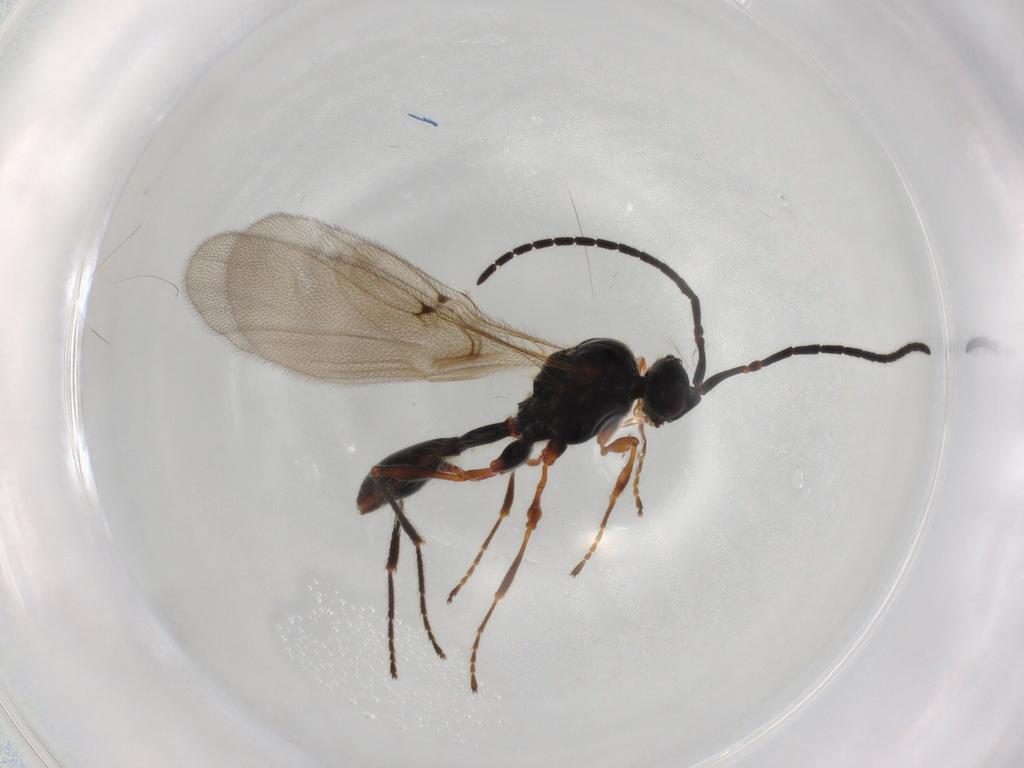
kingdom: Animalia
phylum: Arthropoda
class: Insecta
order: Hymenoptera
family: Diapriidae
